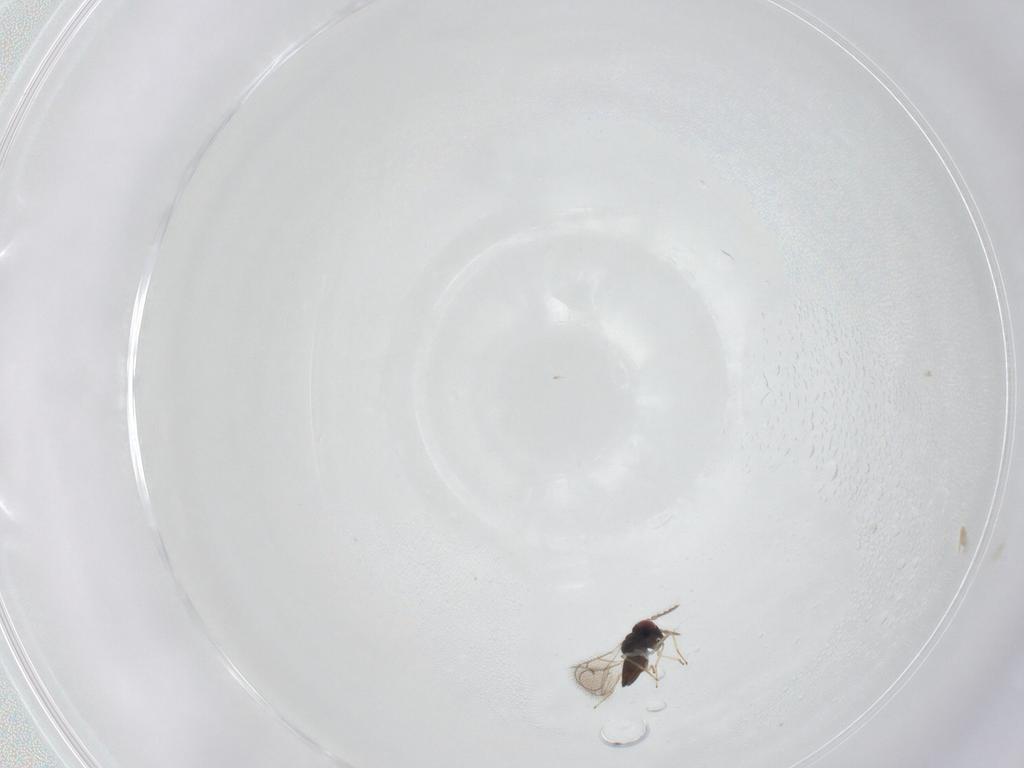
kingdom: Animalia
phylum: Arthropoda
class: Insecta
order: Hymenoptera
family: Eulophidae
